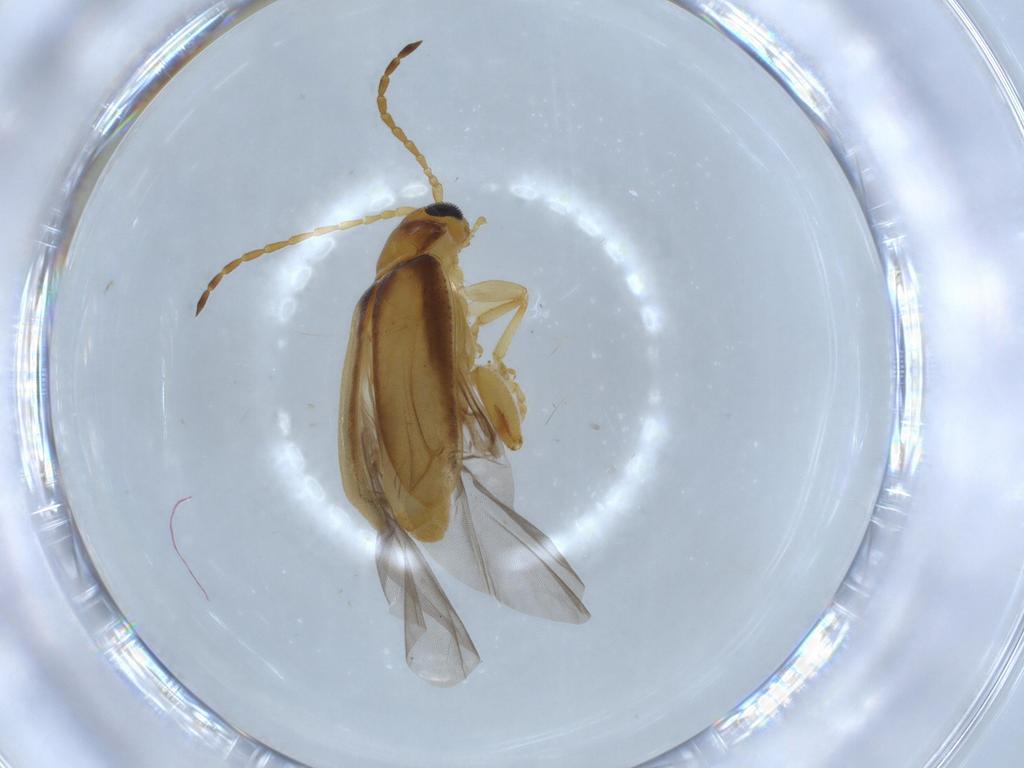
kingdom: Animalia
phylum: Arthropoda
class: Insecta
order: Coleoptera
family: Chrysomelidae
